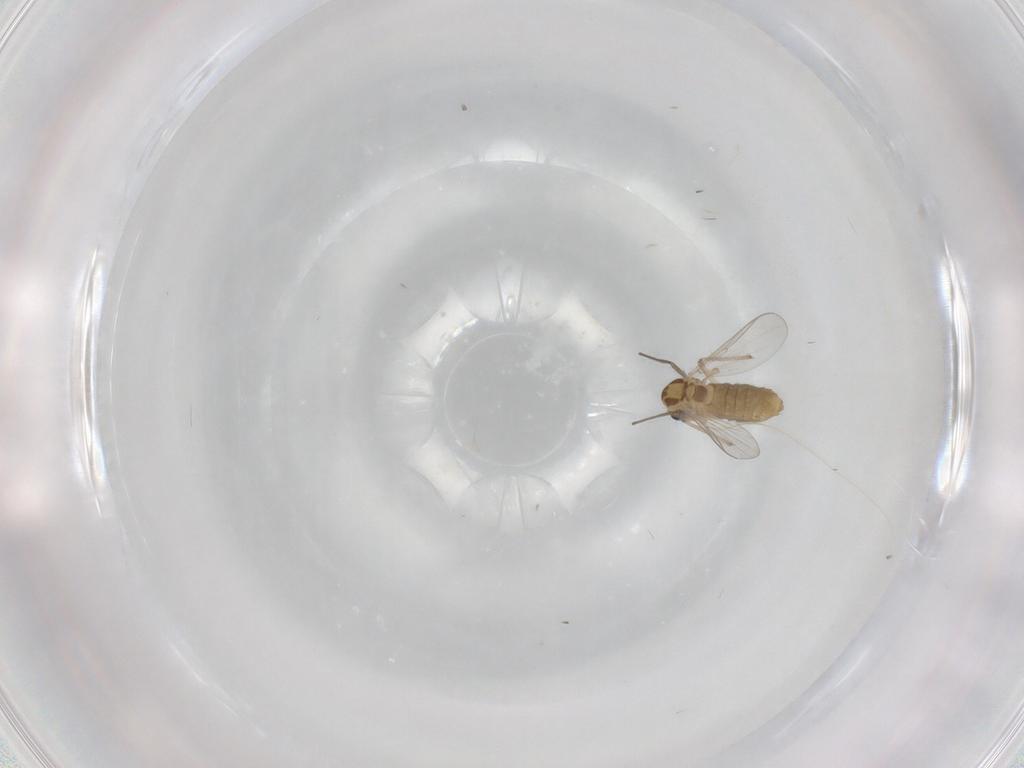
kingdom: Animalia
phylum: Arthropoda
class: Insecta
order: Diptera
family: Chironomidae
